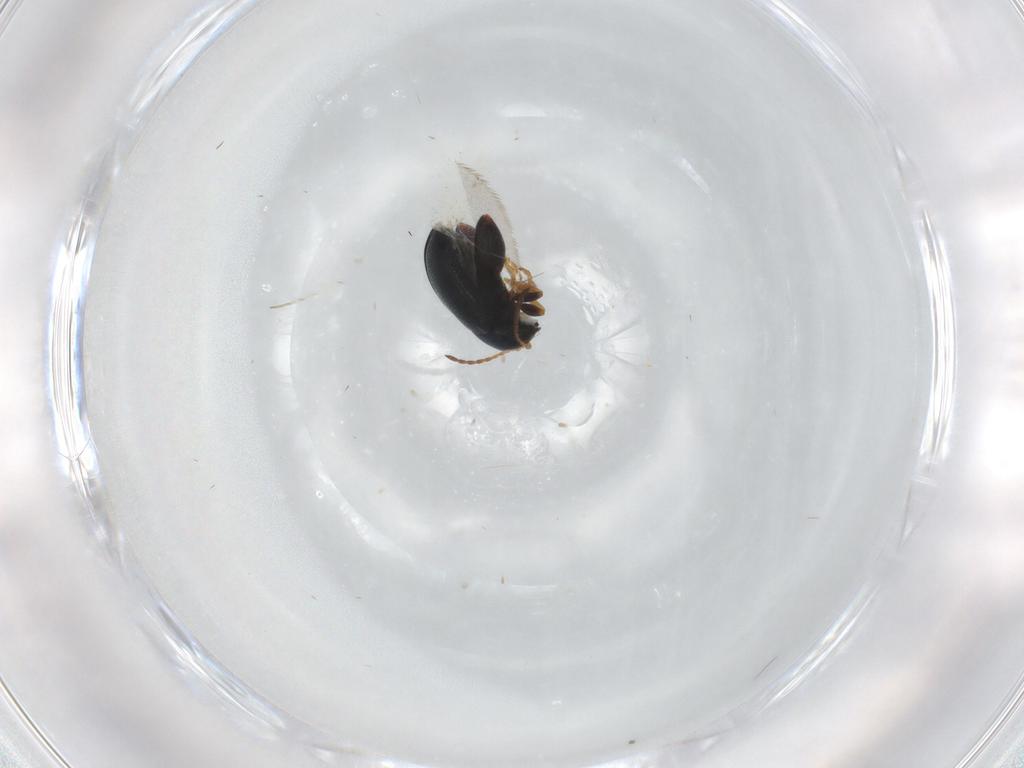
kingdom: Animalia
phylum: Arthropoda
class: Insecta
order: Coleoptera
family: Chrysomelidae
